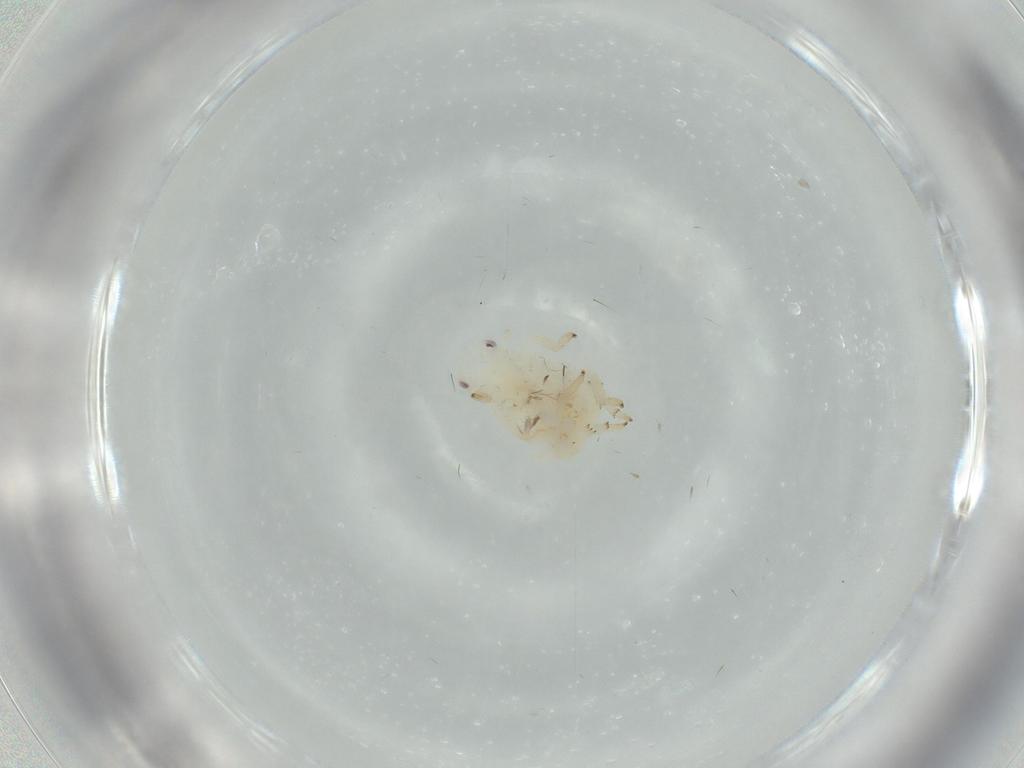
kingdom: Animalia
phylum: Arthropoda
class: Insecta
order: Hemiptera
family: Flatidae
